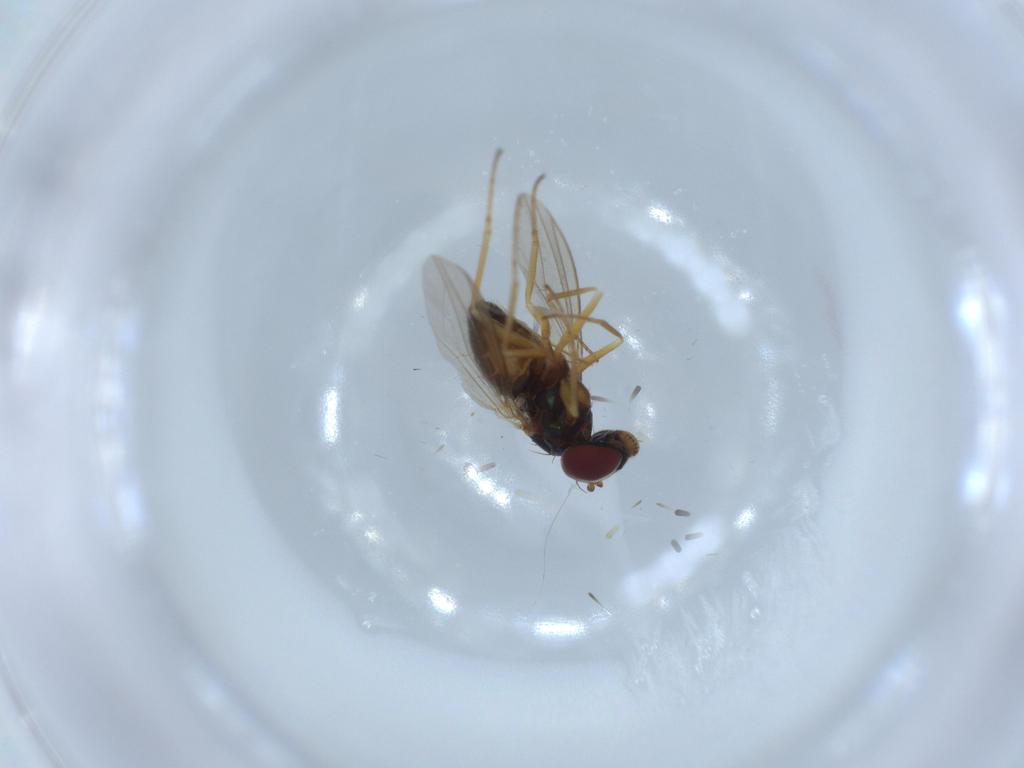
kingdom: Animalia
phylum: Arthropoda
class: Insecta
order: Diptera
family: Dolichopodidae
